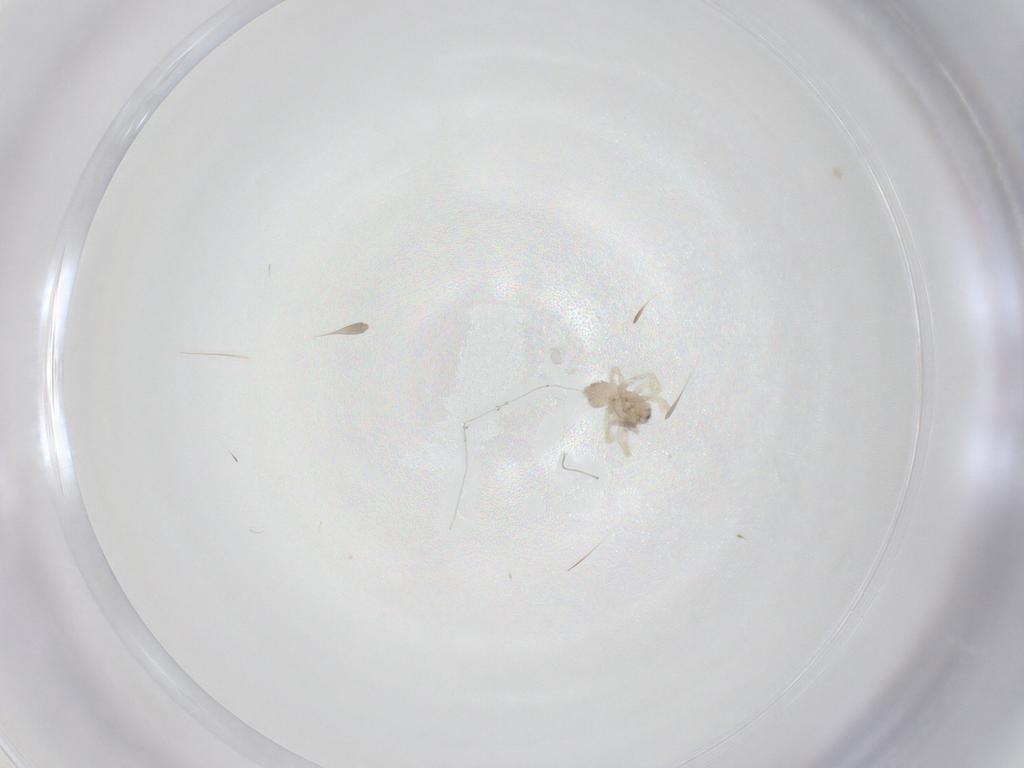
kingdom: Animalia
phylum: Arthropoda
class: Arachnida
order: Araneae
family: Idiopidae
